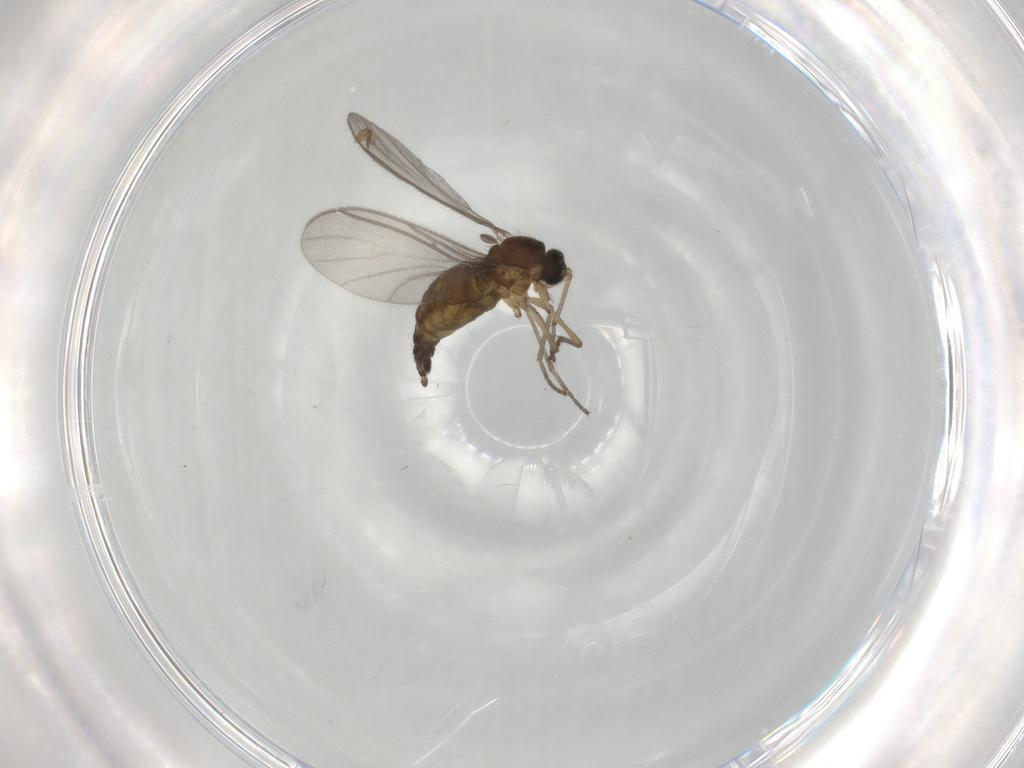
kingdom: Animalia
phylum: Arthropoda
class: Insecta
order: Diptera
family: Sciaridae
